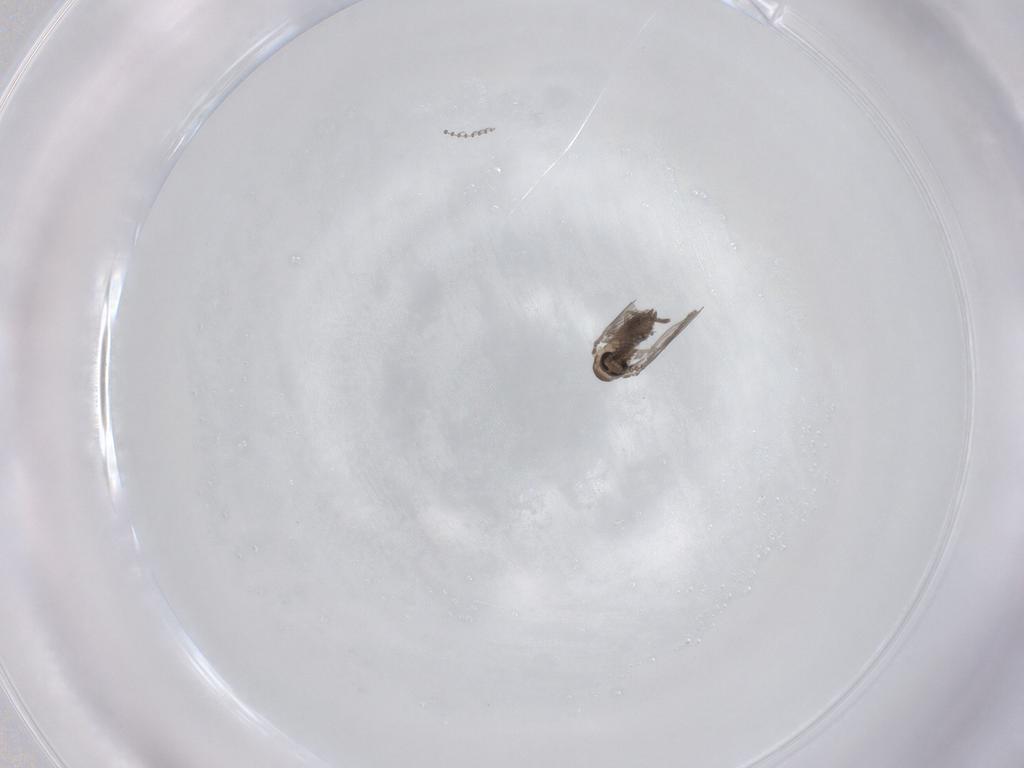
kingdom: Animalia
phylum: Arthropoda
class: Insecta
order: Diptera
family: Psychodidae
